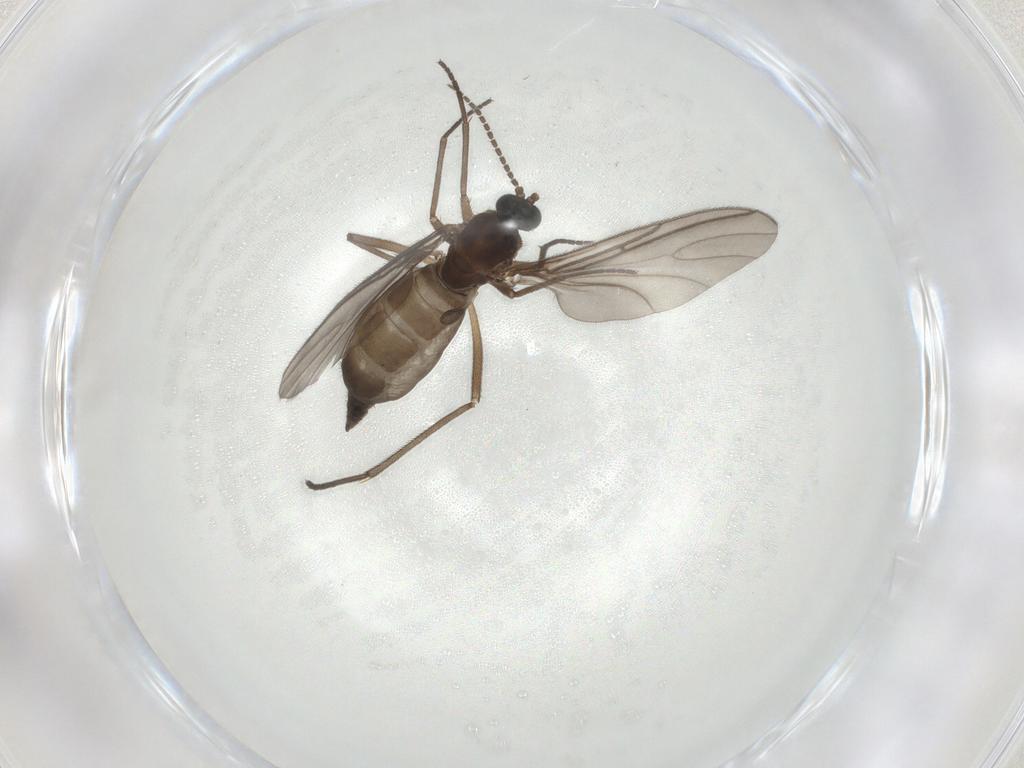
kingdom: Animalia
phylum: Arthropoda
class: Insecta
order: Diptera
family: Sciaridae
